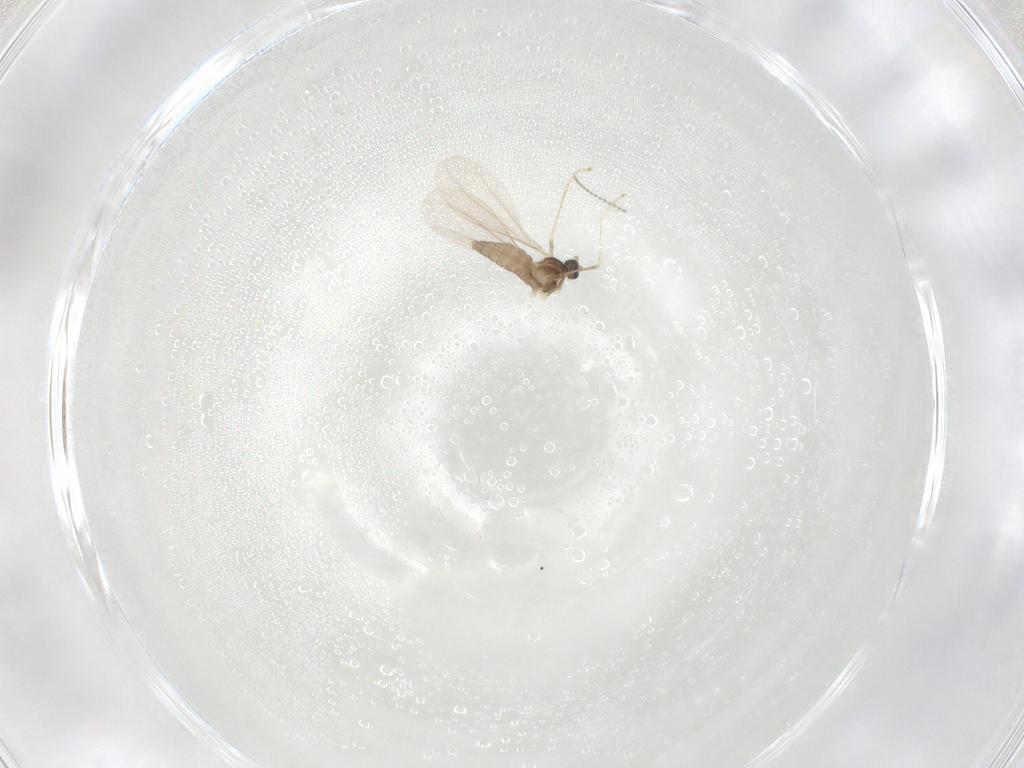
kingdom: Animalia
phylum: Arthropoda
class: Insecta
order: Diptera
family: Cecidomyiidae
